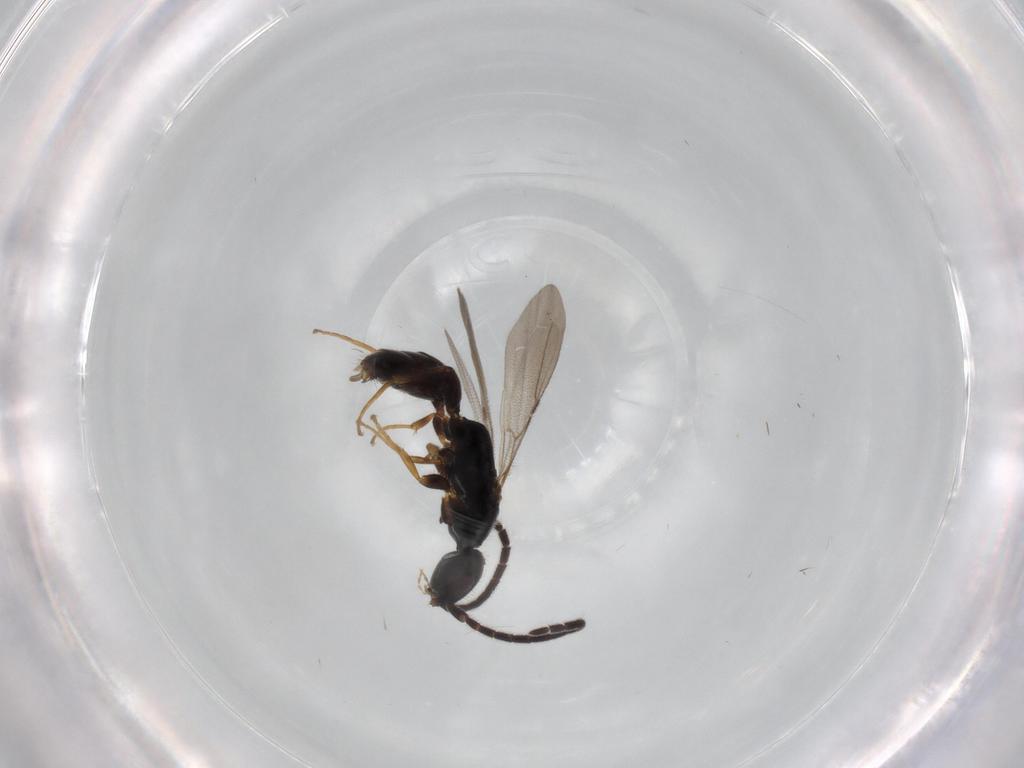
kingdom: Animalia
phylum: Arthropoda
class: Insecta
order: Hymenoptera
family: Bethylidae
